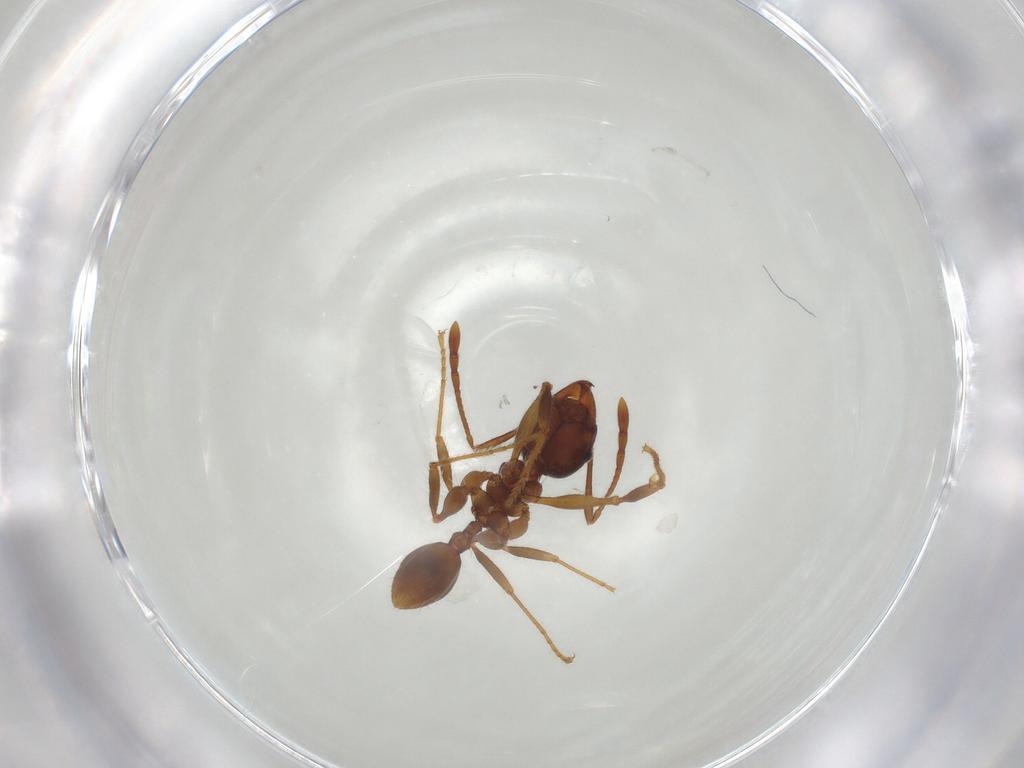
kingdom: Animalia
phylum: Arthropoda
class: Insecta
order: Hymenoptera
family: Formicidae
